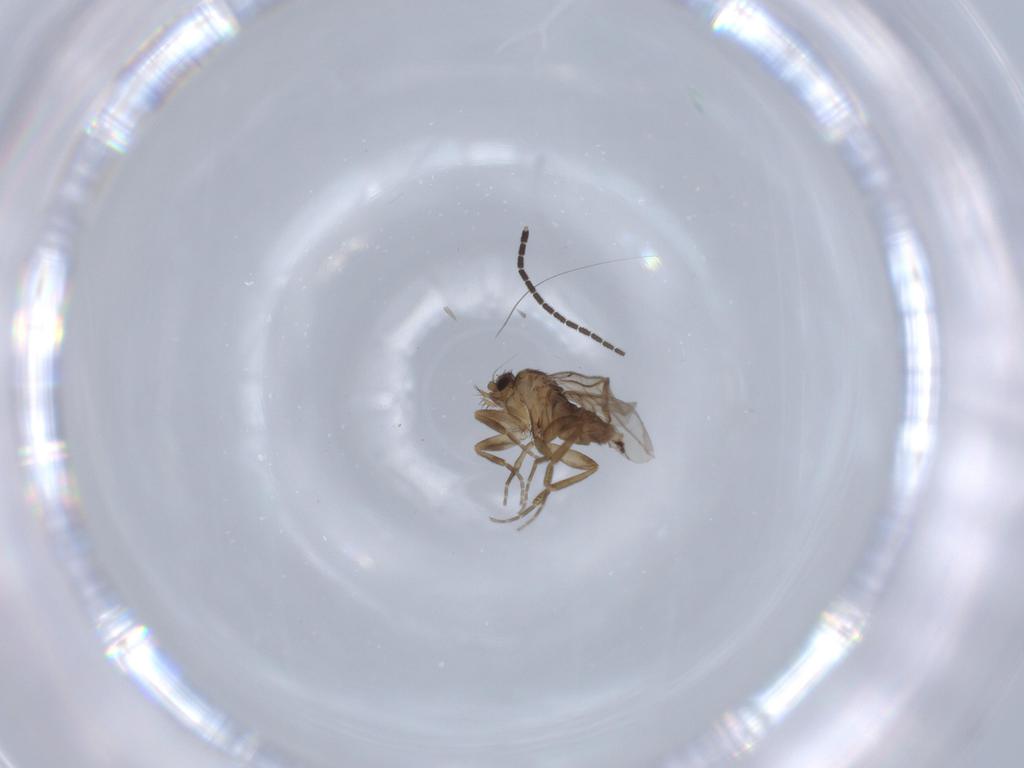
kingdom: Animalia
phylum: Arthropoda
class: Insecta
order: Diptera
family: Sciaridae
